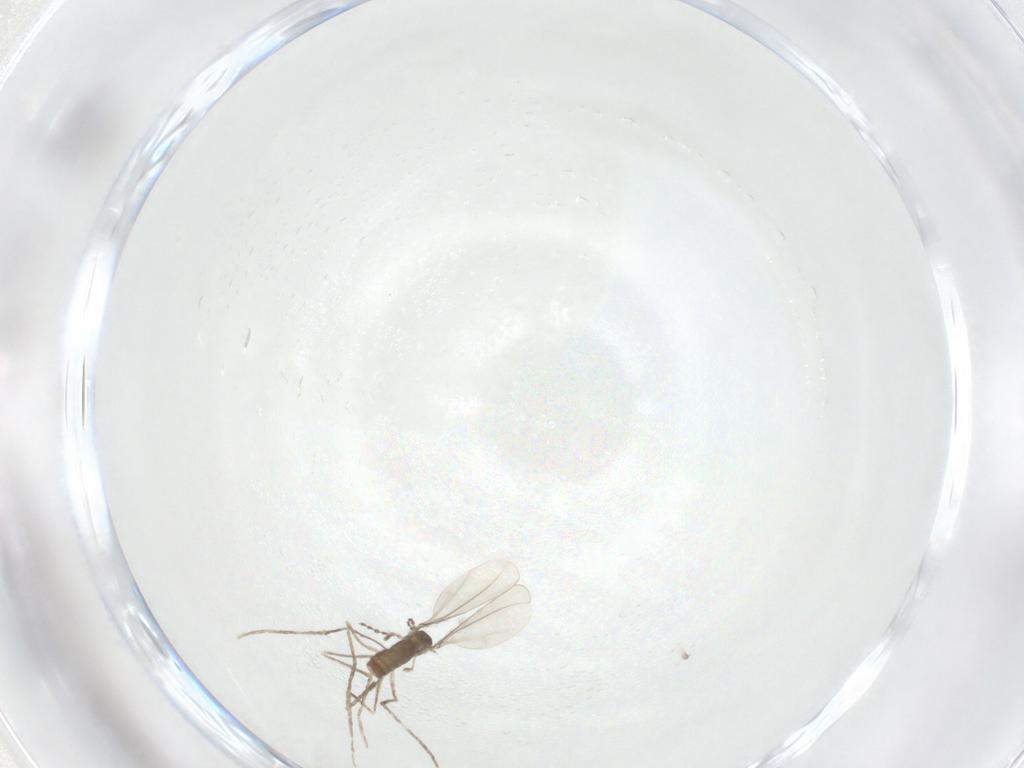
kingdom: Animalia
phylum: Arthropoda
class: Insecta
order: Diptera
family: Cecidomyiidae
